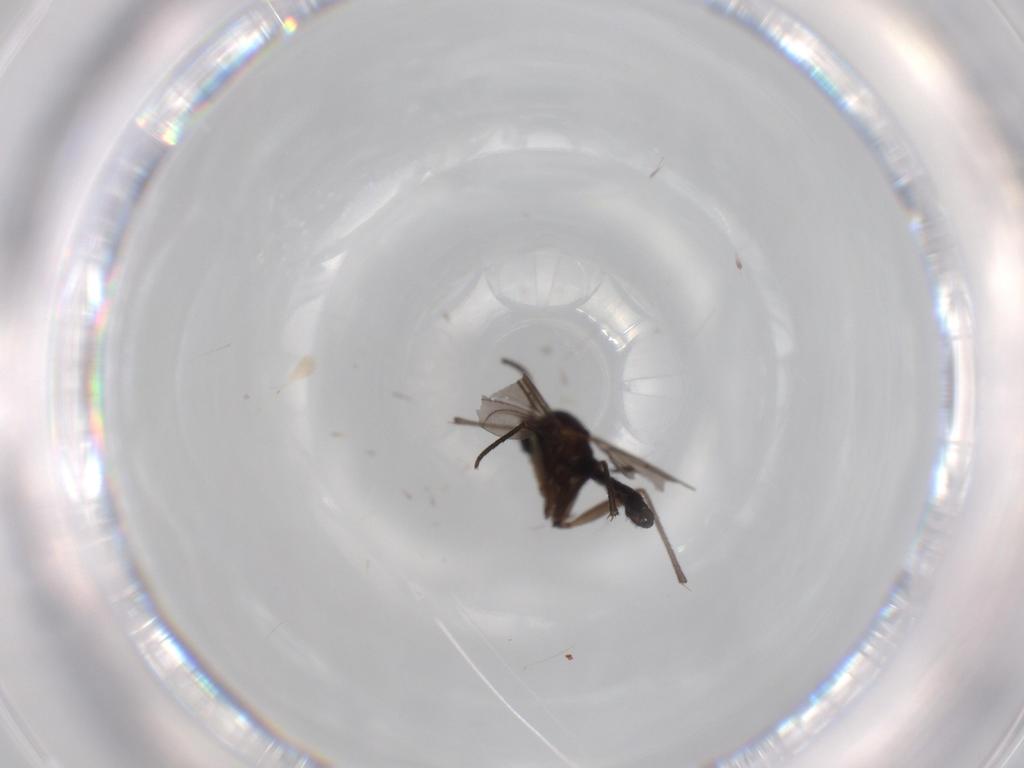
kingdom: Animalia
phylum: Arthropoda
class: Insecta
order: Diptera
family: Sciaridae
